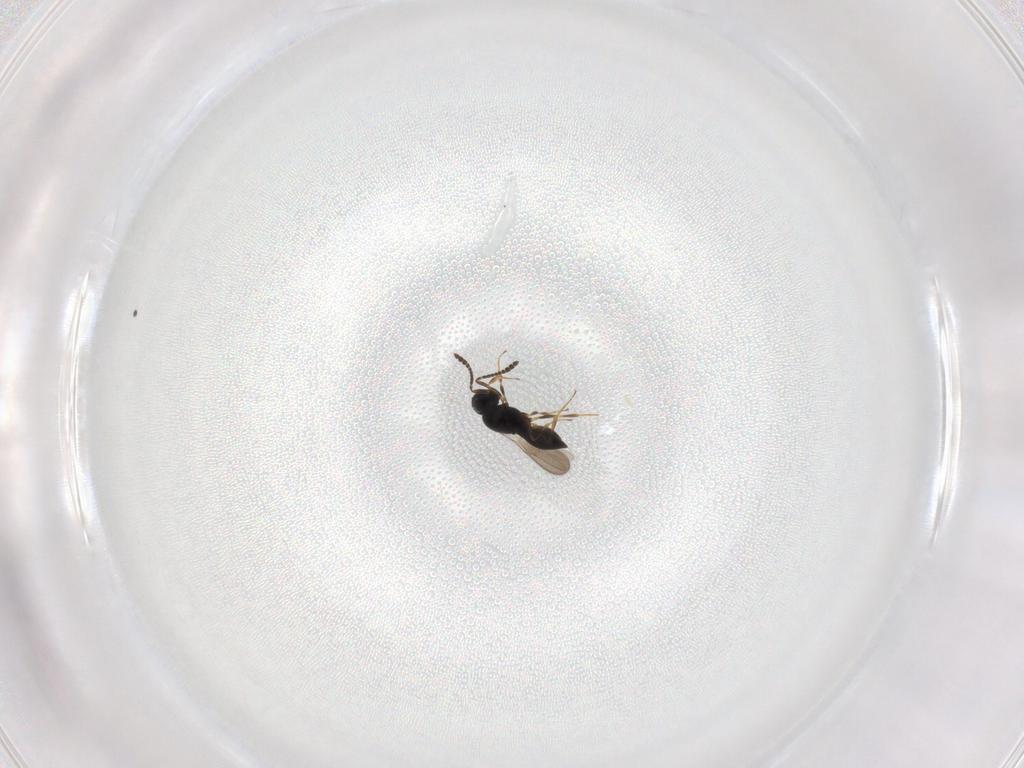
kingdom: Animalia
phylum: Arthropoda
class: Insecta
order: Hymenoptera
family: Scelionidae
